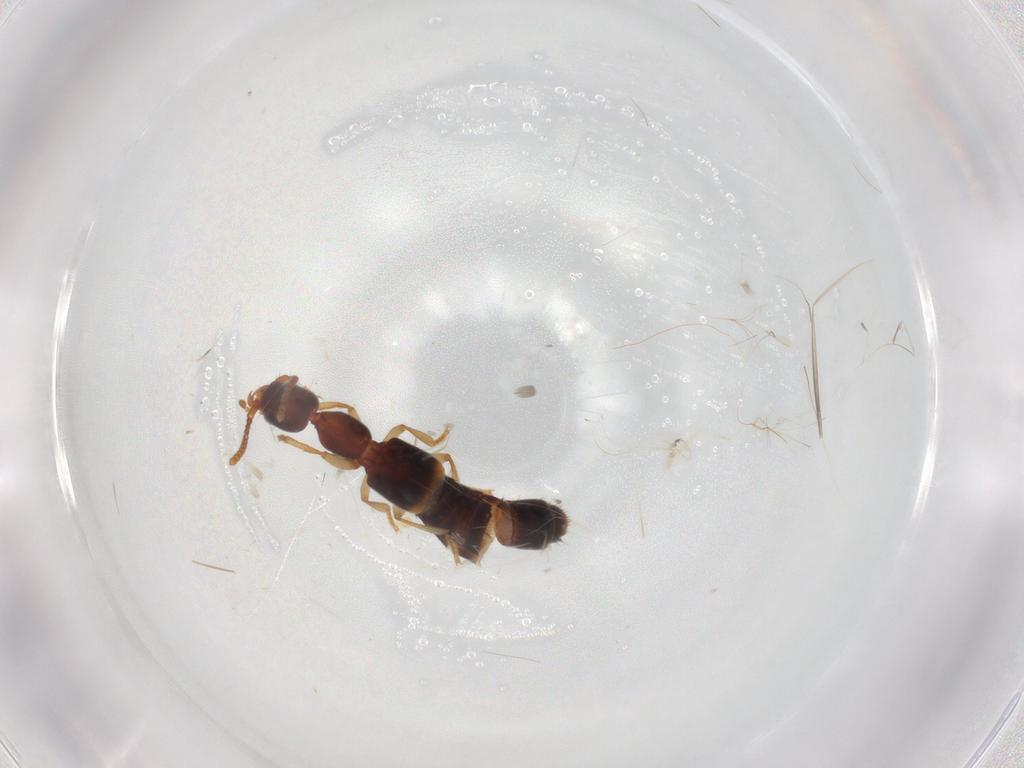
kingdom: Animalia
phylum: Arthropoda
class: Insecta
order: Coleoptera
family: Staphylinidae
